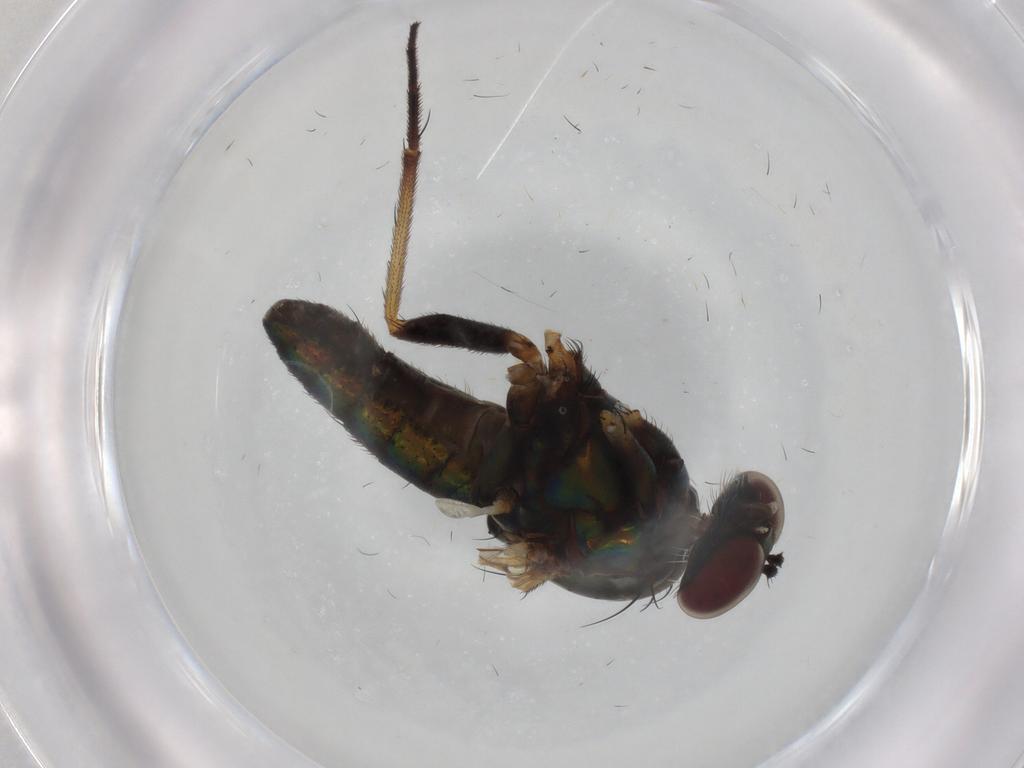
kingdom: Animalia
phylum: Arthropoda
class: Insecta
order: Diptera
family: Dolichopodidae
